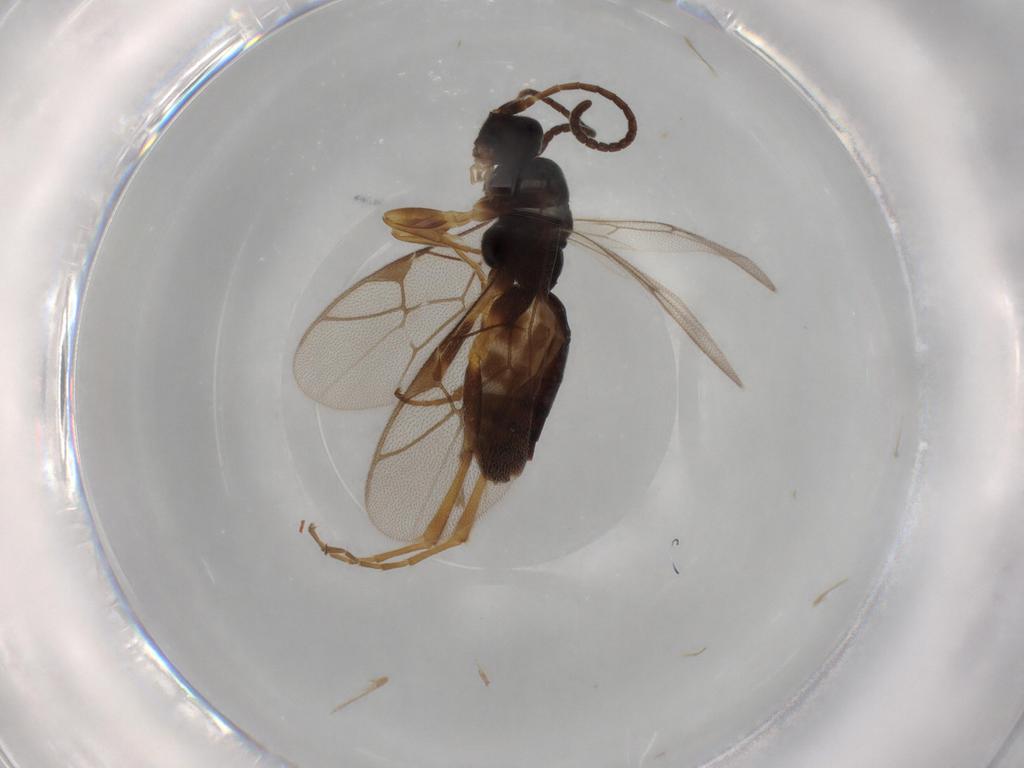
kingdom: Animalia
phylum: Arthropoda
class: Insecta
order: Hymenoptera
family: Ichneumonidae
